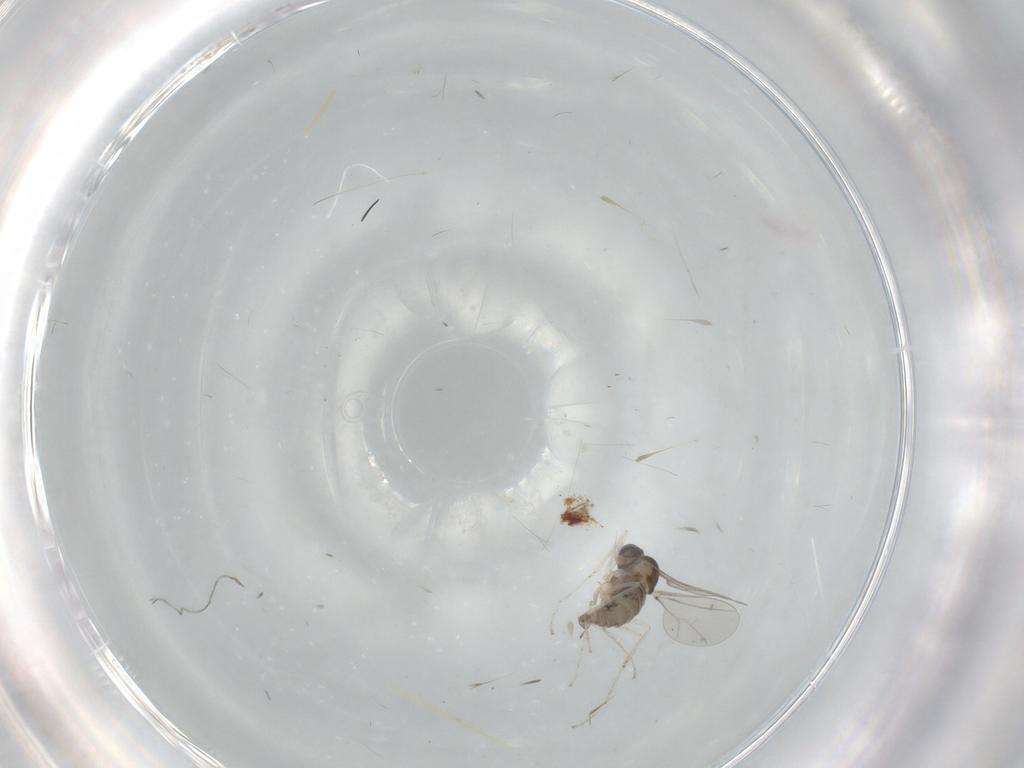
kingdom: Animalia
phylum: Arthropoda
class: Insecta
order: Diptera
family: Cecidomyiidae
